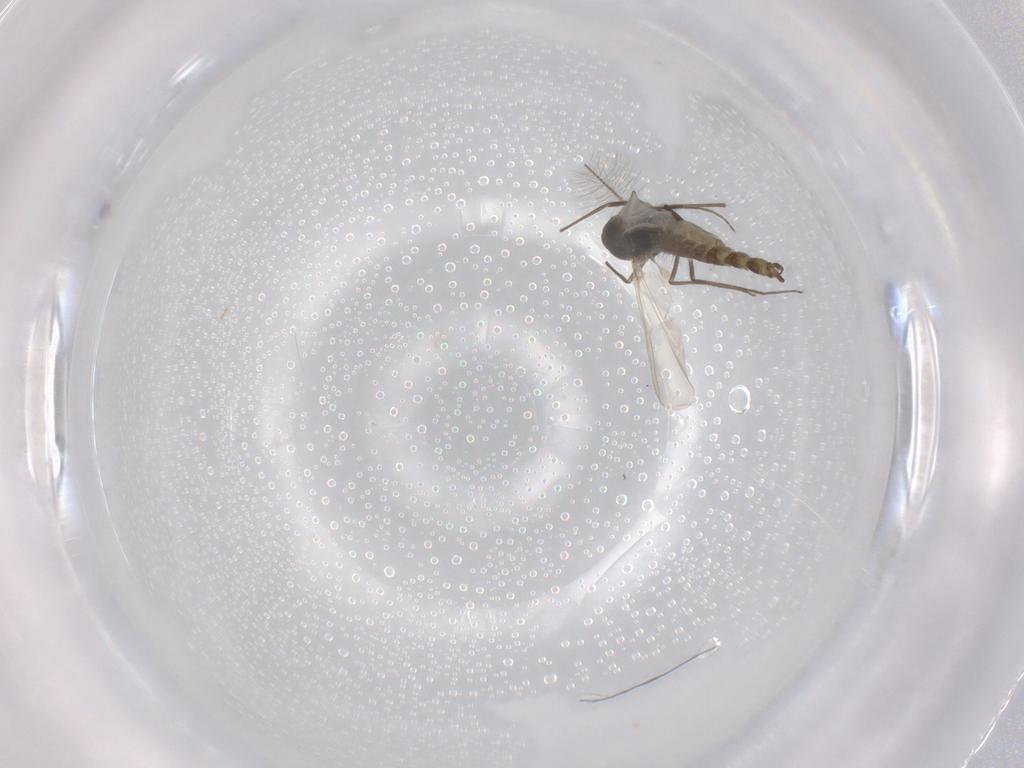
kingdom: Animalia
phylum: Arthropoda
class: Insecta
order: Diptera
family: Chironomidae
